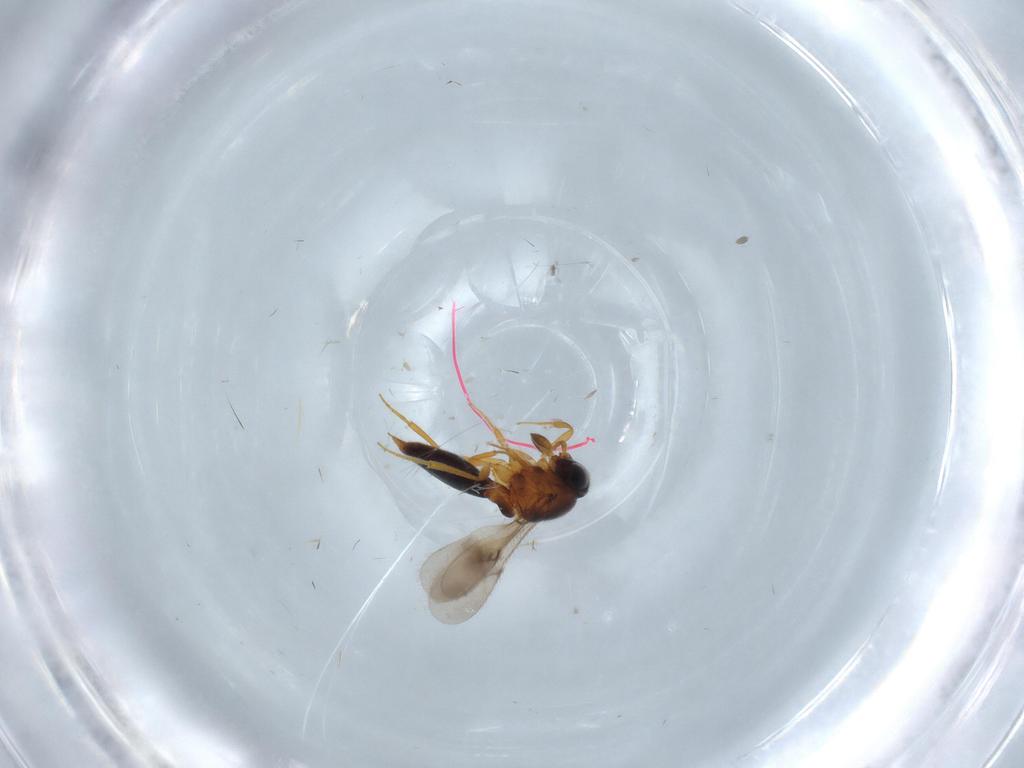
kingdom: Animalia
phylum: Arthropoda
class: Insecta
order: Hymenoptera
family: Scelionidae
